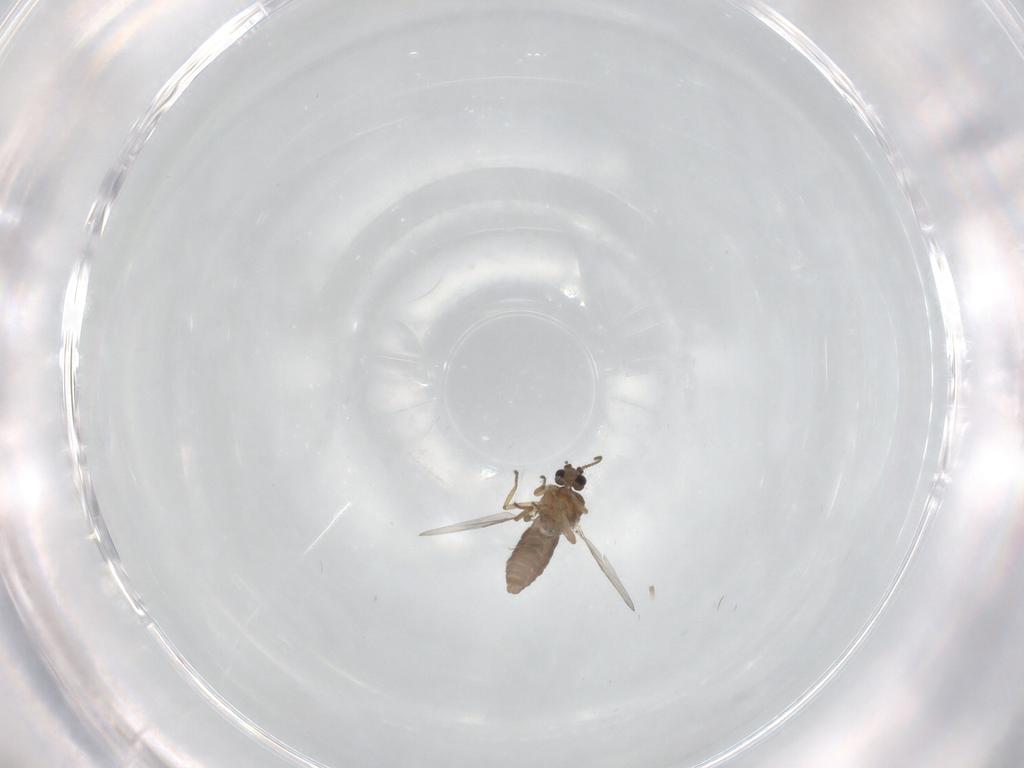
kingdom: Animalia
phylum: Arthropoda
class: Insecta
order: Diptera
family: Ceratopogonidae
